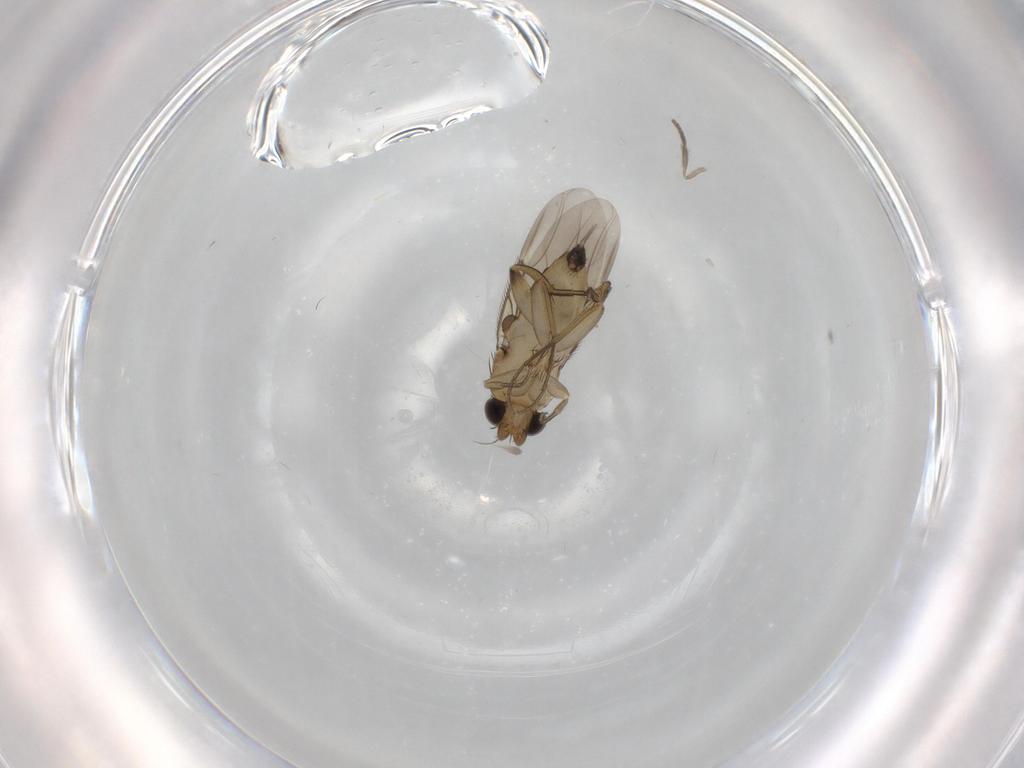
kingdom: Animalia
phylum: Arthropoda
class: Insecta
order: Diptera
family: Phoridae
